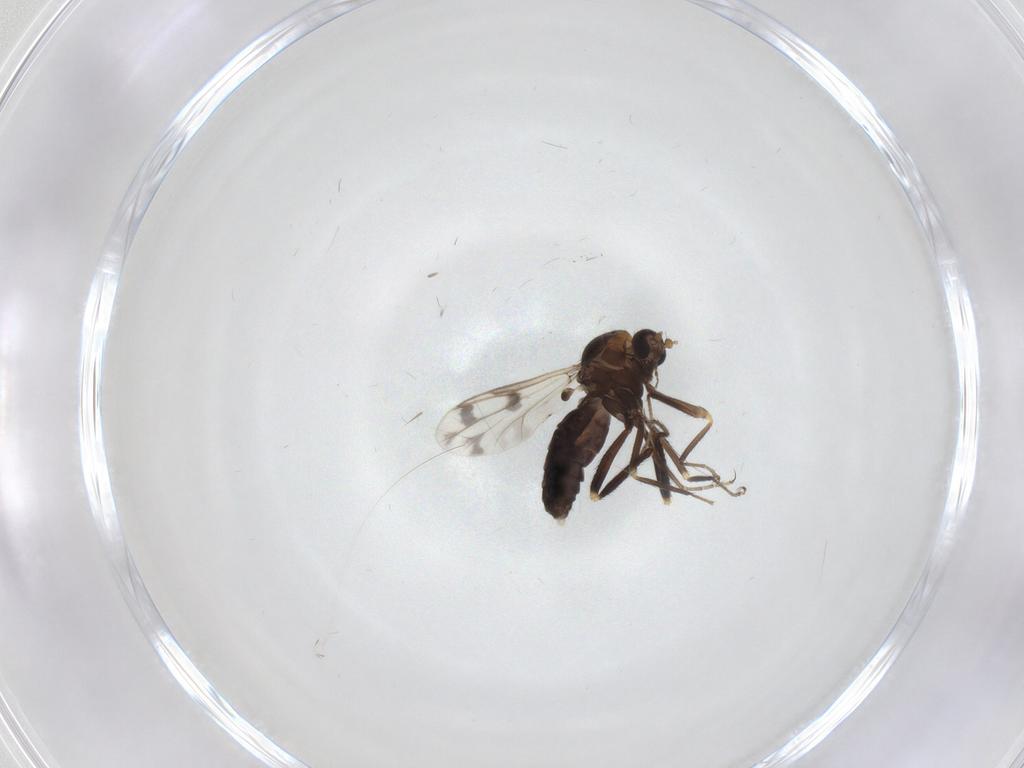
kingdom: Animalia
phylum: Arthropoda
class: Insecta
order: Diptera
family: Ceratopogonidae
